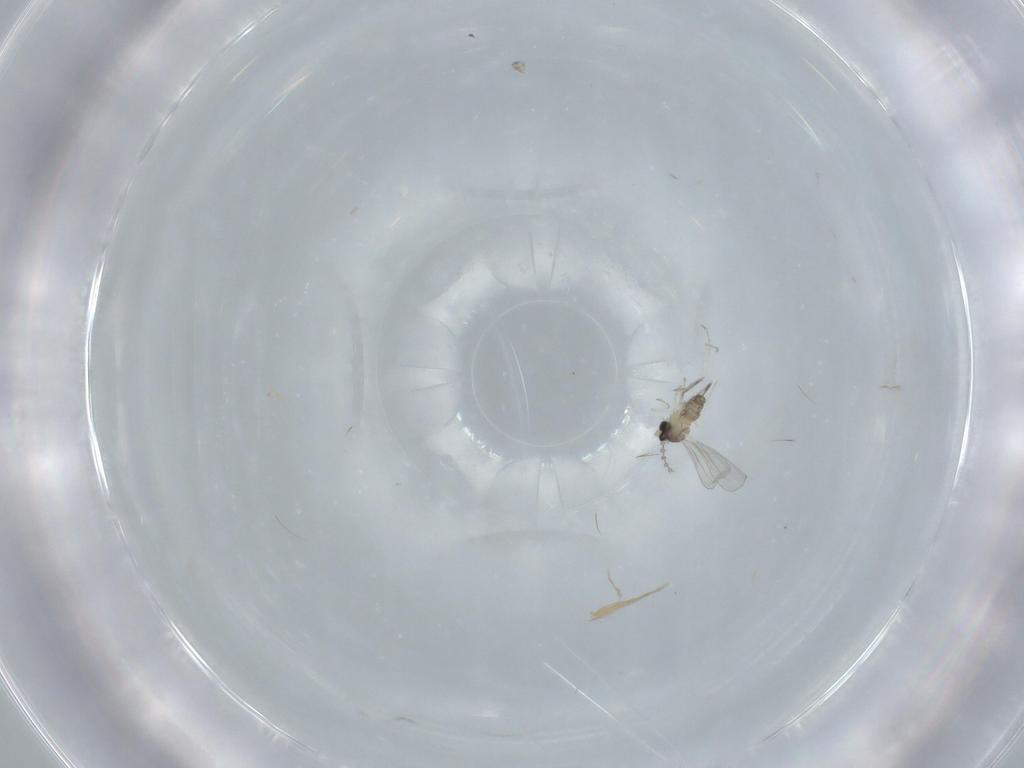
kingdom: Animalia
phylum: Arthropoda
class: Insecta
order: Diptera
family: Cecidomyiidae
